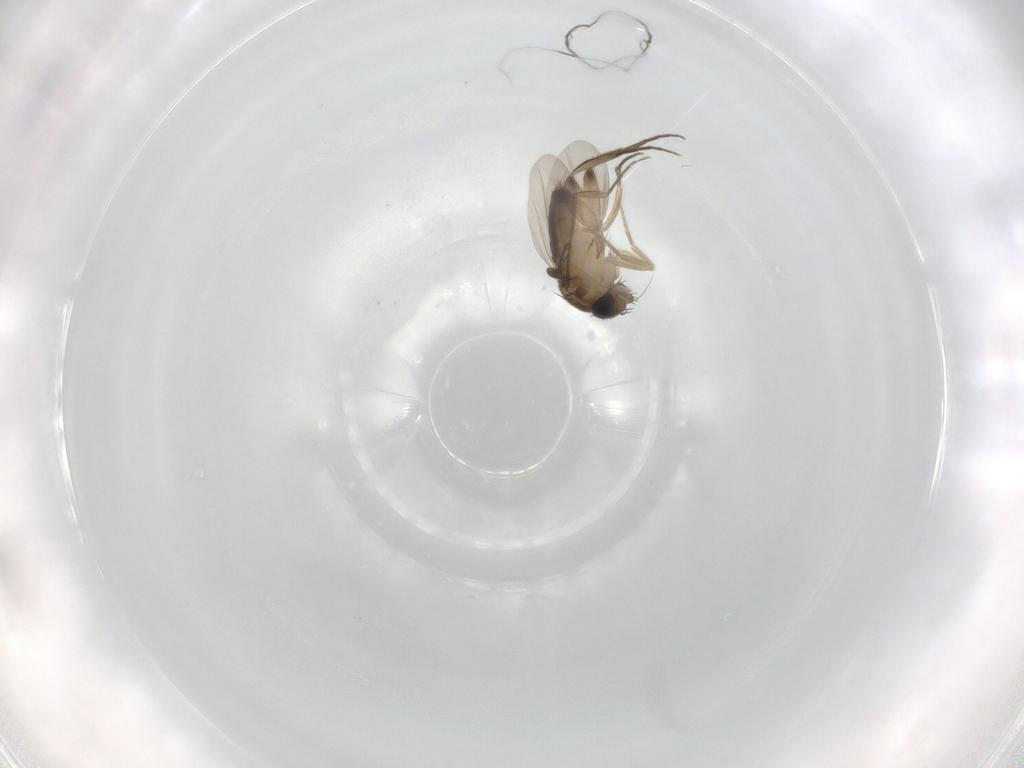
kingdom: Animalia
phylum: Arthropoda
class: Insecta
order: Diptera
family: Phoridae
